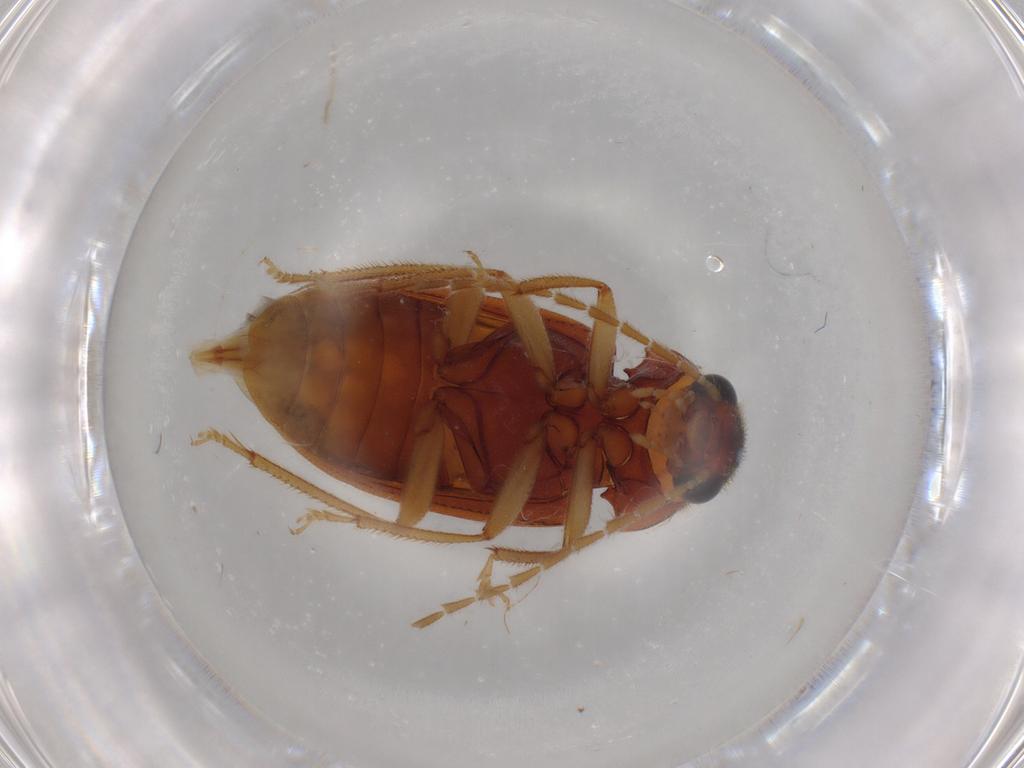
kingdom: Animalia
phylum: Arthropoda
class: Insecta
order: Coleoptera
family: Ptilodactylidae
